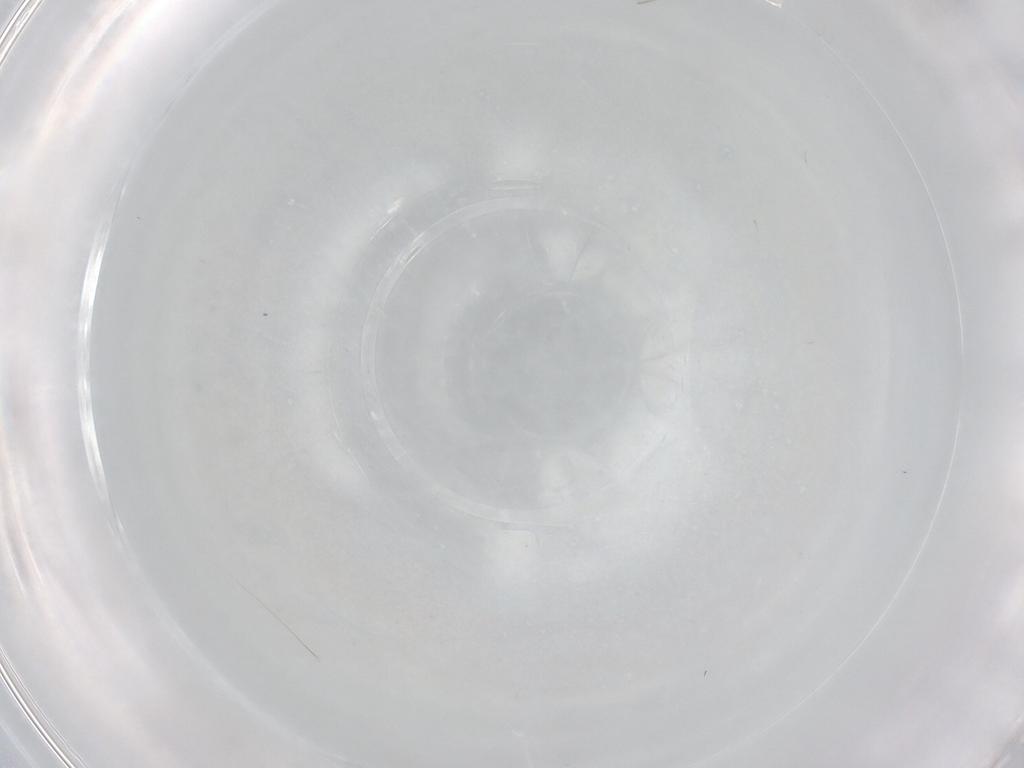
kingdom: Animalia
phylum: Arthropoda
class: Insecta
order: Diptera
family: Cecidomyiidae
